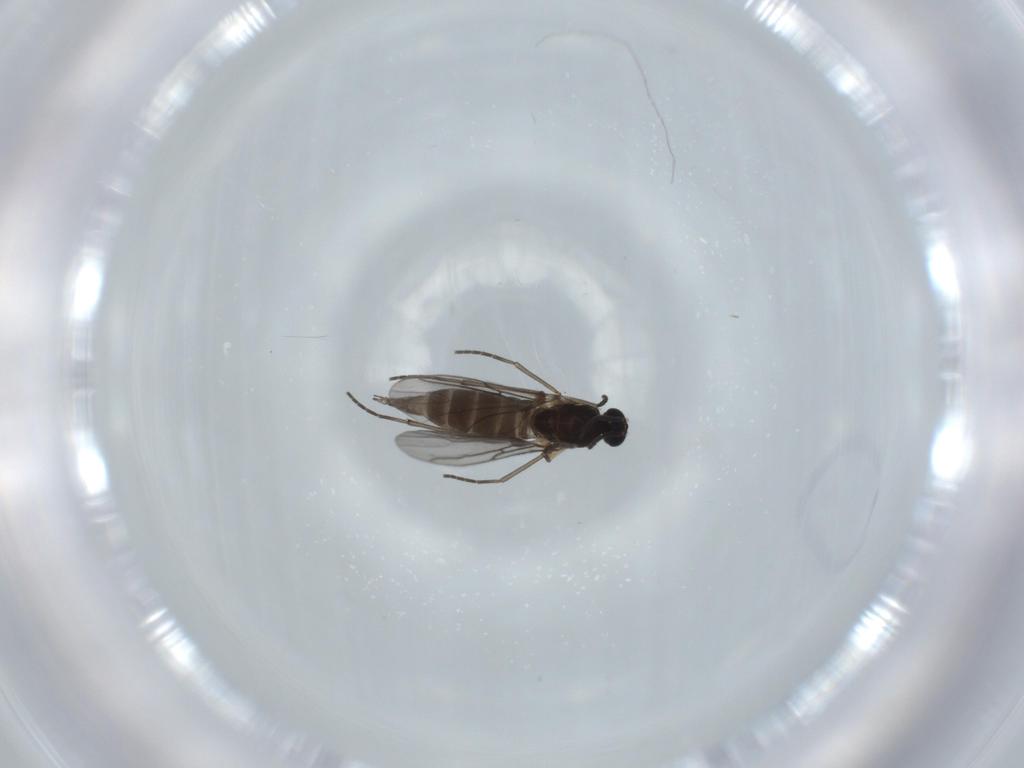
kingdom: Animalia
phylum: Arthropoda
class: Insecta
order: Diptera
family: Sciaridae
